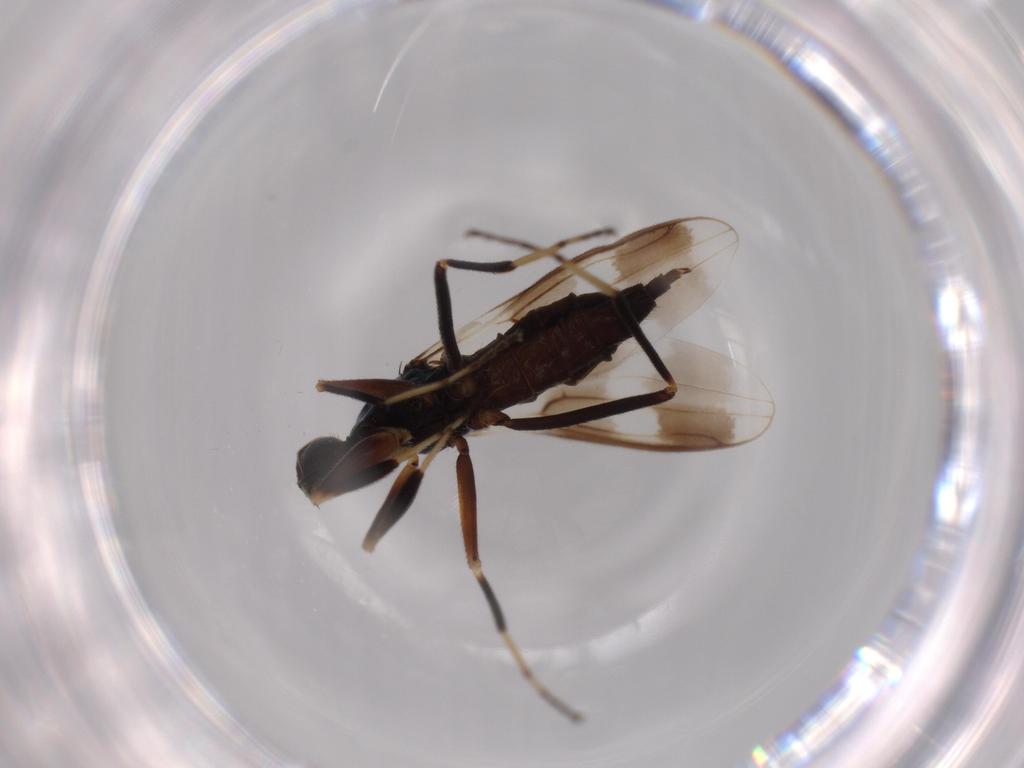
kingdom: Animalia
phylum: Arthropoda
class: Insecta
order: Diptera
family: Hybotidae
